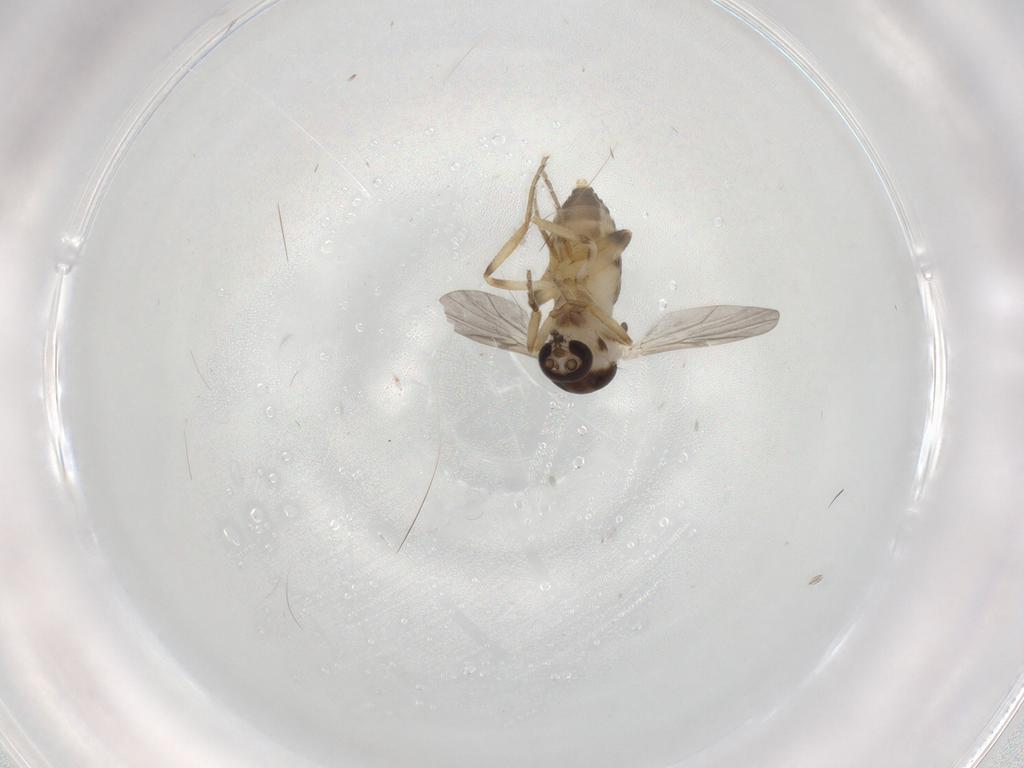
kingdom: Animalia
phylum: Arthropoda
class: Insecta
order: Diptera
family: Ceratopogonidae
